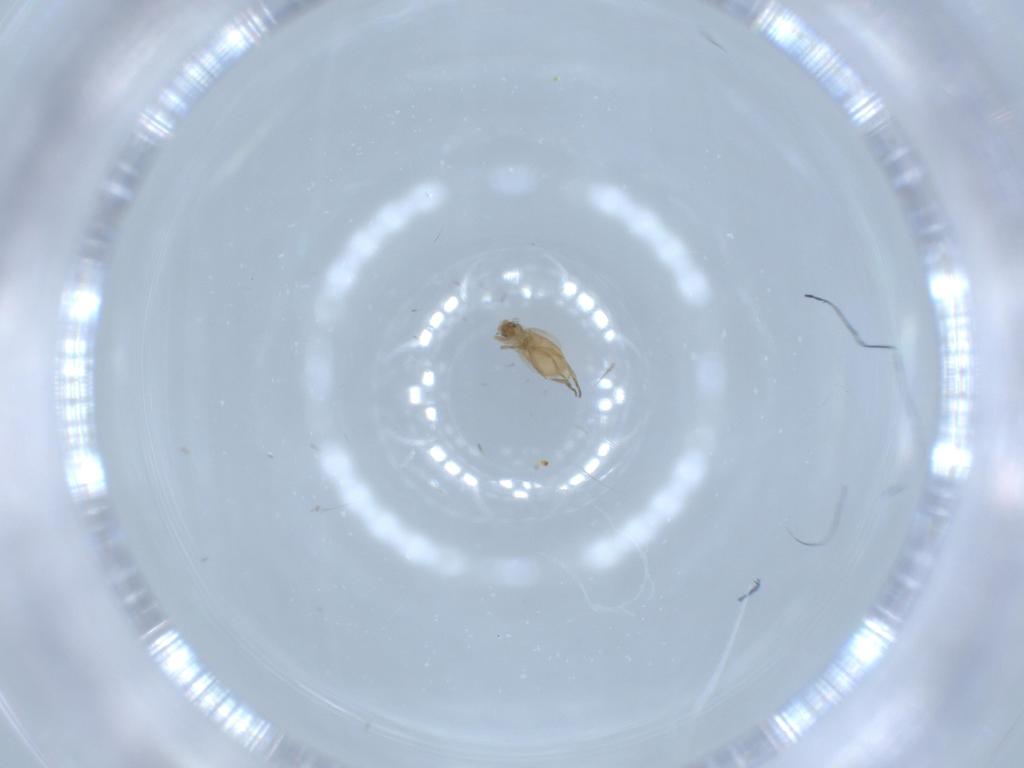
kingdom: Animalia
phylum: Arthropoda
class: Insecta
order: Diptera
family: Phoridae
